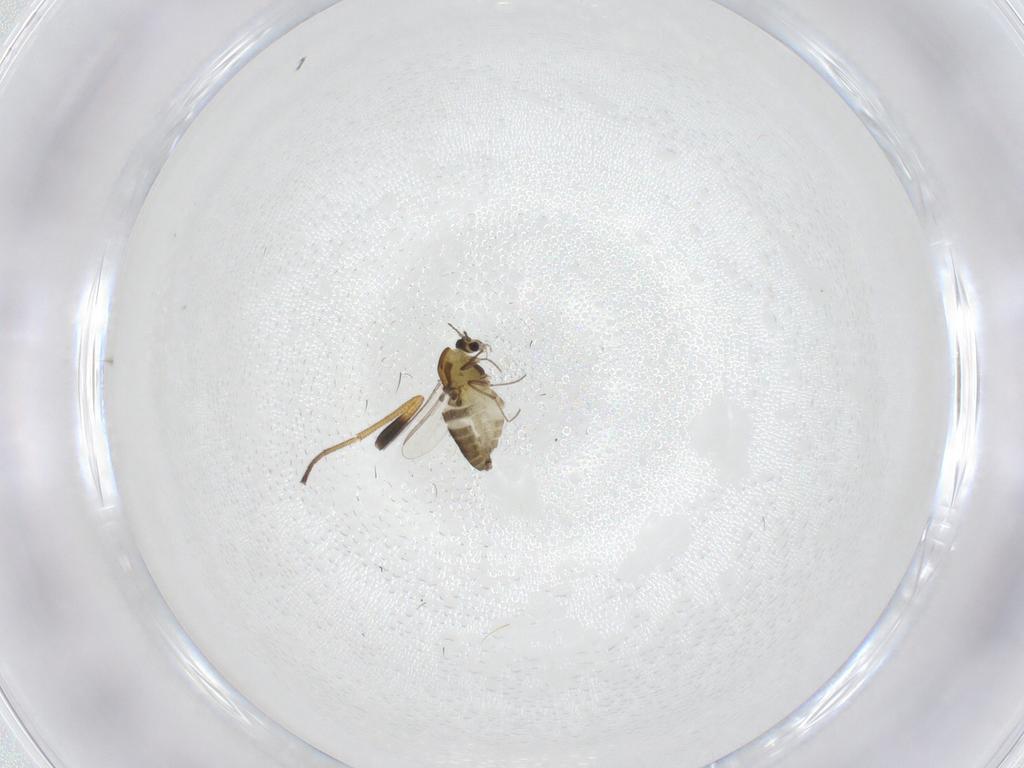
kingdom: Animalia
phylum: Arthropoda
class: Insecta
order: Diptera
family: Chironomidae
